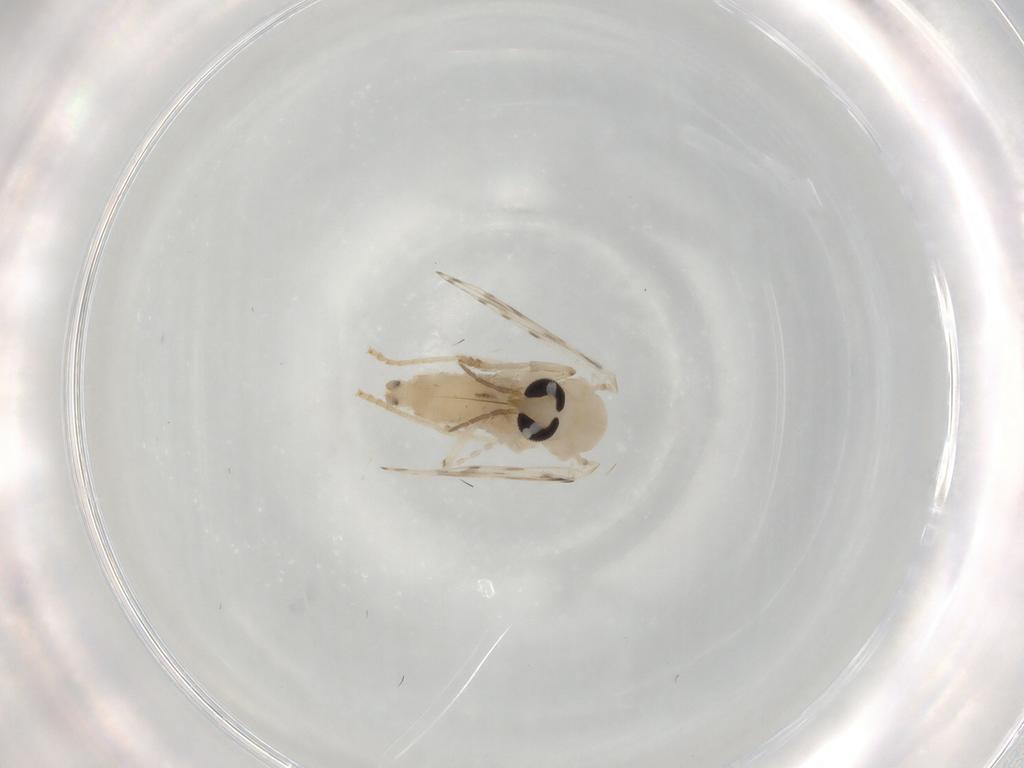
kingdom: Animalia
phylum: Arthropoda
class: Insecta
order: Diptera
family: Psychodidae
